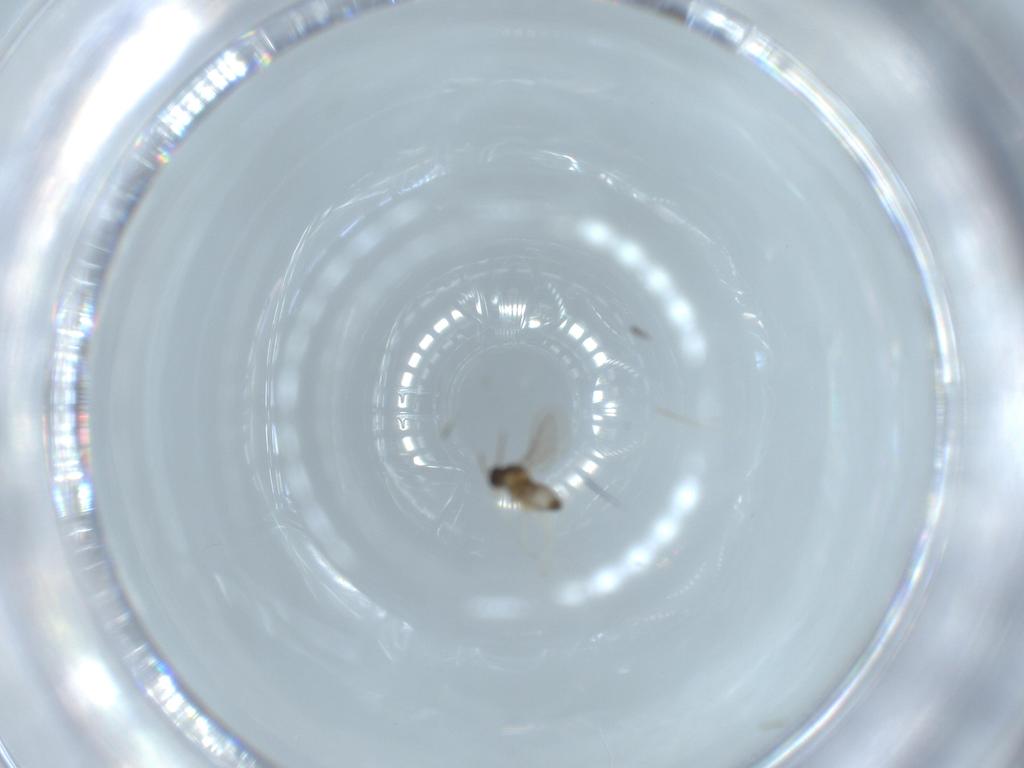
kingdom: Animalia
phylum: Arthropoda
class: Insecta
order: Diptera
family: Cecidomyiidae
